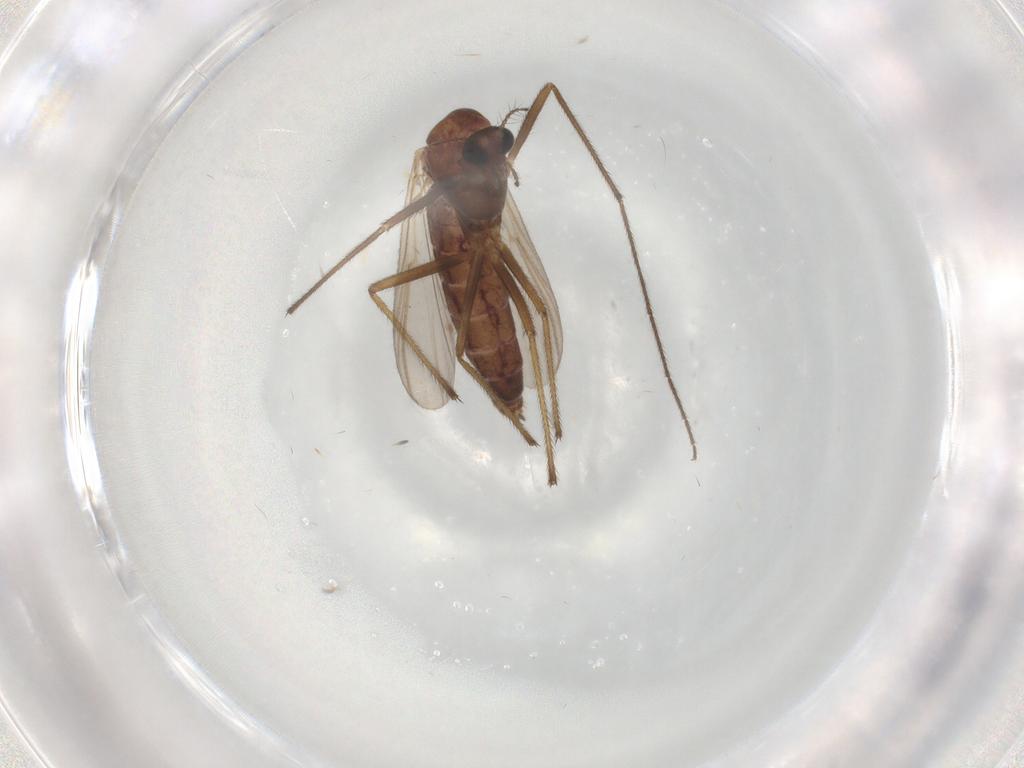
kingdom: Animalia
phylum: Arthropoda
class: Insecta
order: Diptera
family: Chironomidae
